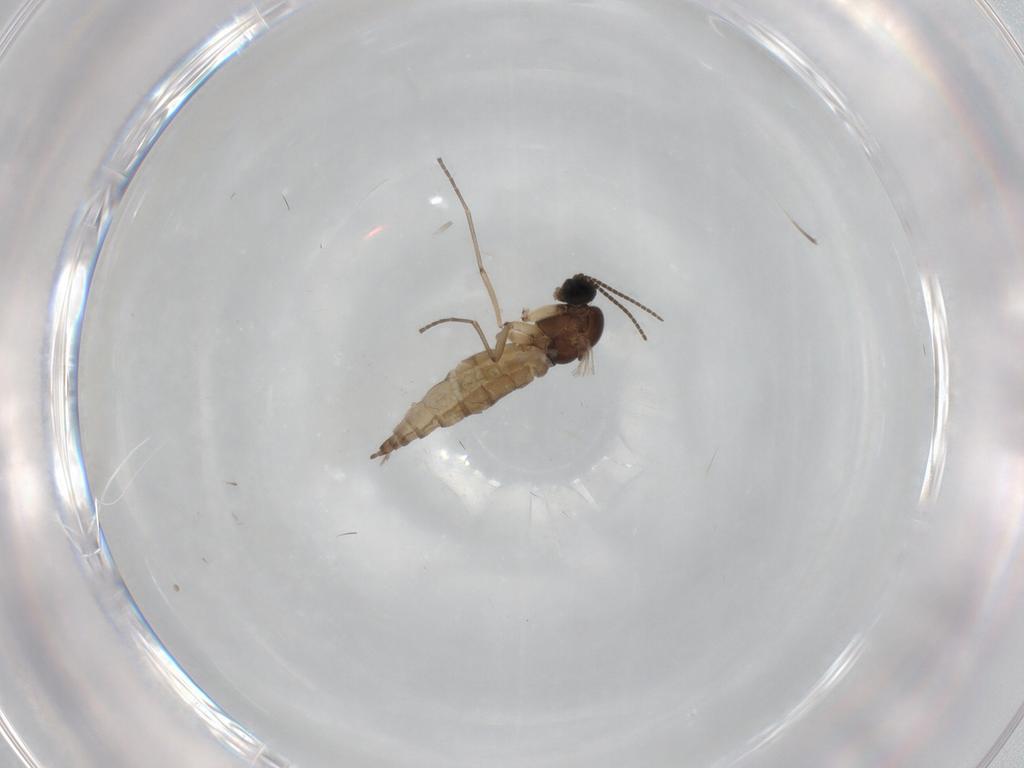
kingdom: Animalia
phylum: Arthropoda
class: Insecta
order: Diptera
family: Sciaridae
